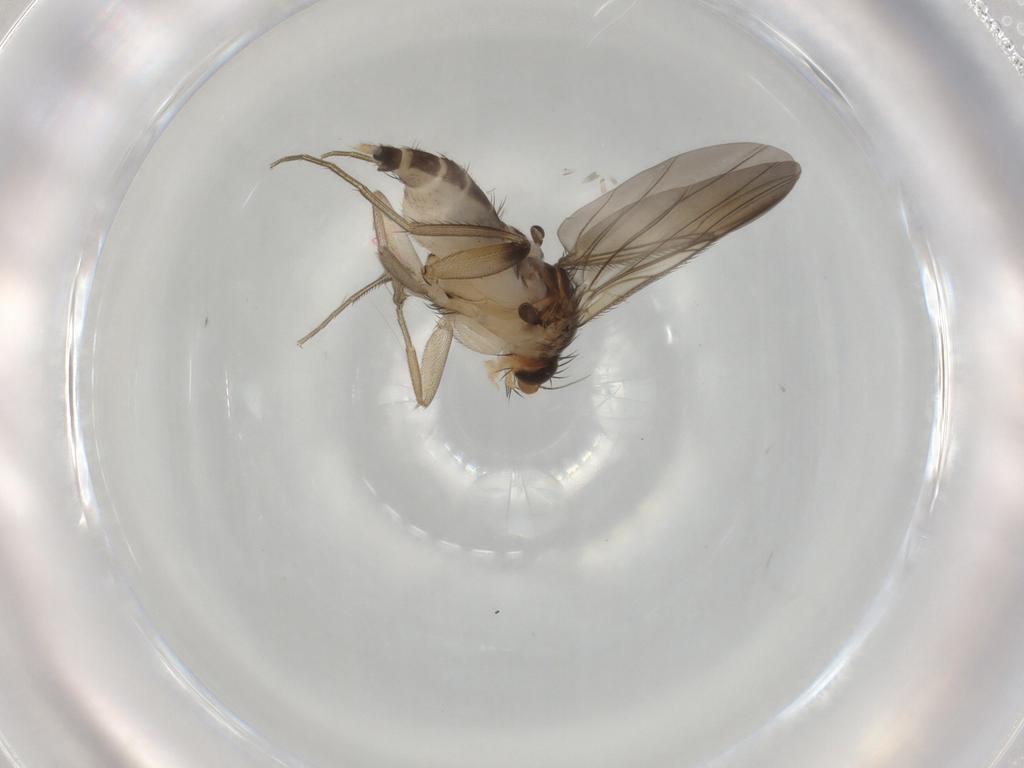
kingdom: Animalia
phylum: Arthropoda
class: Insecta
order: Diptera
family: Phoridae
